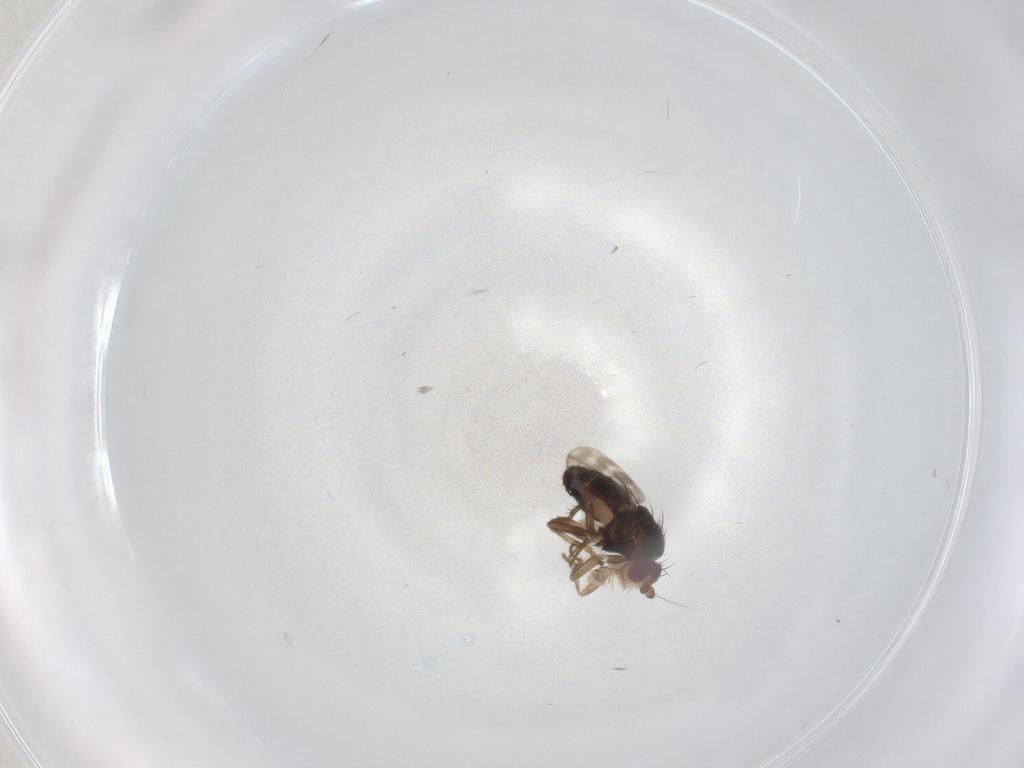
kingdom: Animalia
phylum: Arthropoda
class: Insecta
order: Diptera
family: Sphaeroceridae
